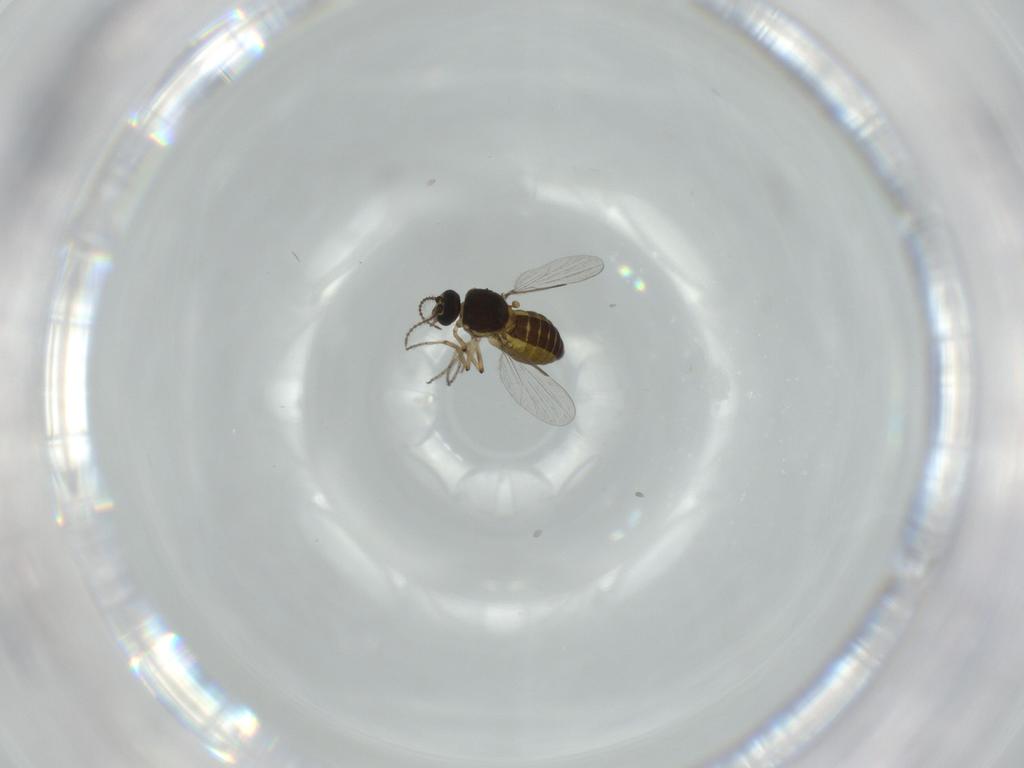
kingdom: Animalia
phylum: Arthropoda
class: Insecta
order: Diptera
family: Ceratopogonidae
